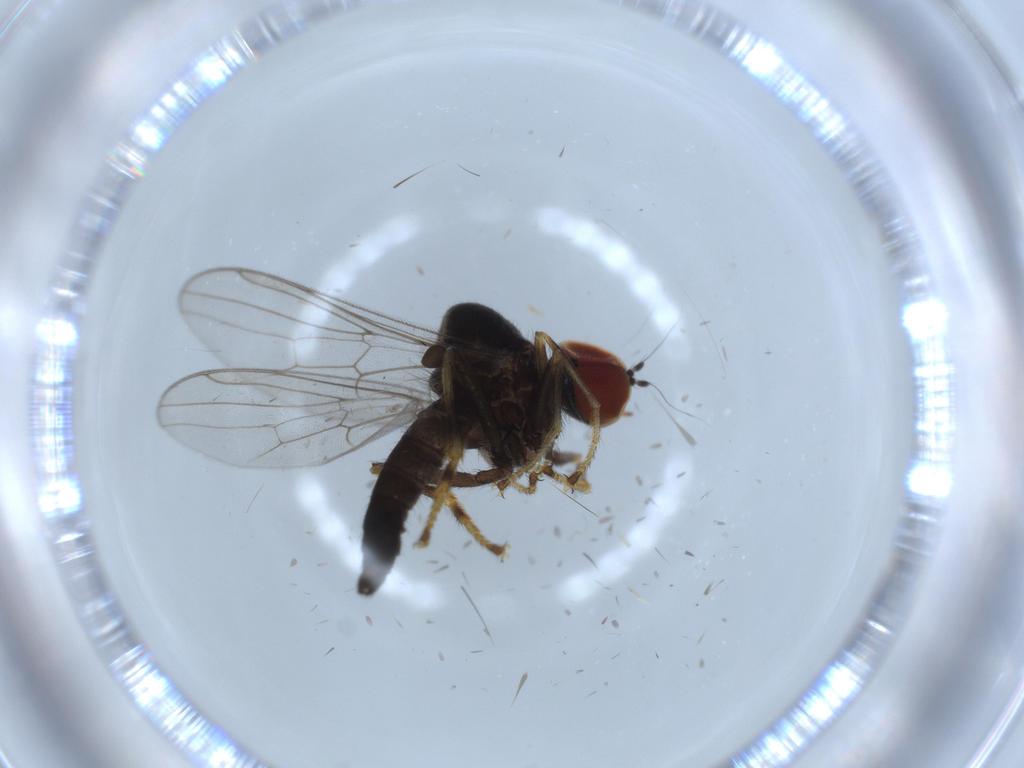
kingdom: Animalia
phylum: Arthropoda
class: Insecta
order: Diptera
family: Hybotidae
